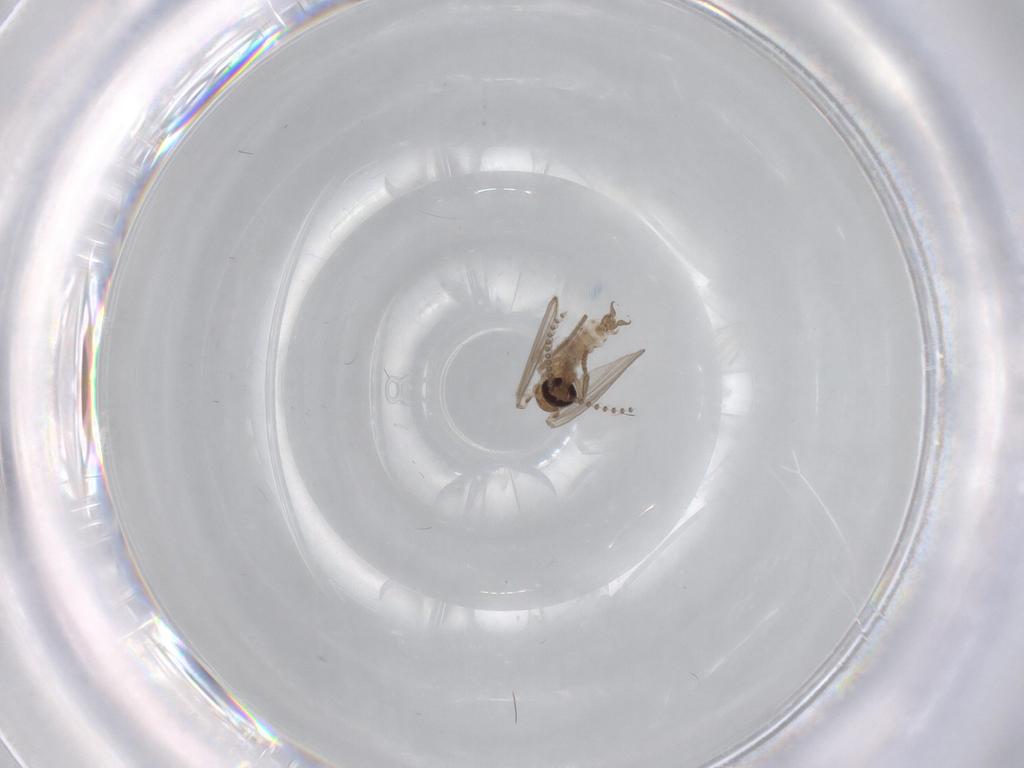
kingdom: Animalia
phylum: Arthropoda
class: Insecta
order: Diptera
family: Psychodidae
